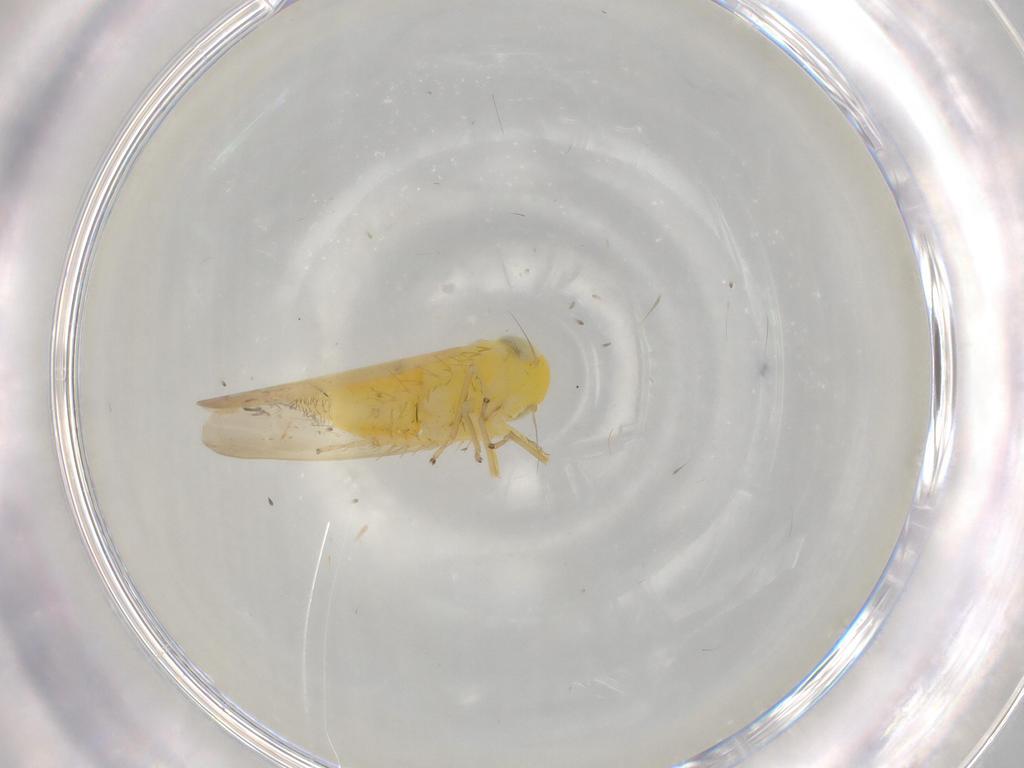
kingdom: Animalia
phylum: Arthropoda
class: Insecta
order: Hemiptera
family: Cicadellidae
